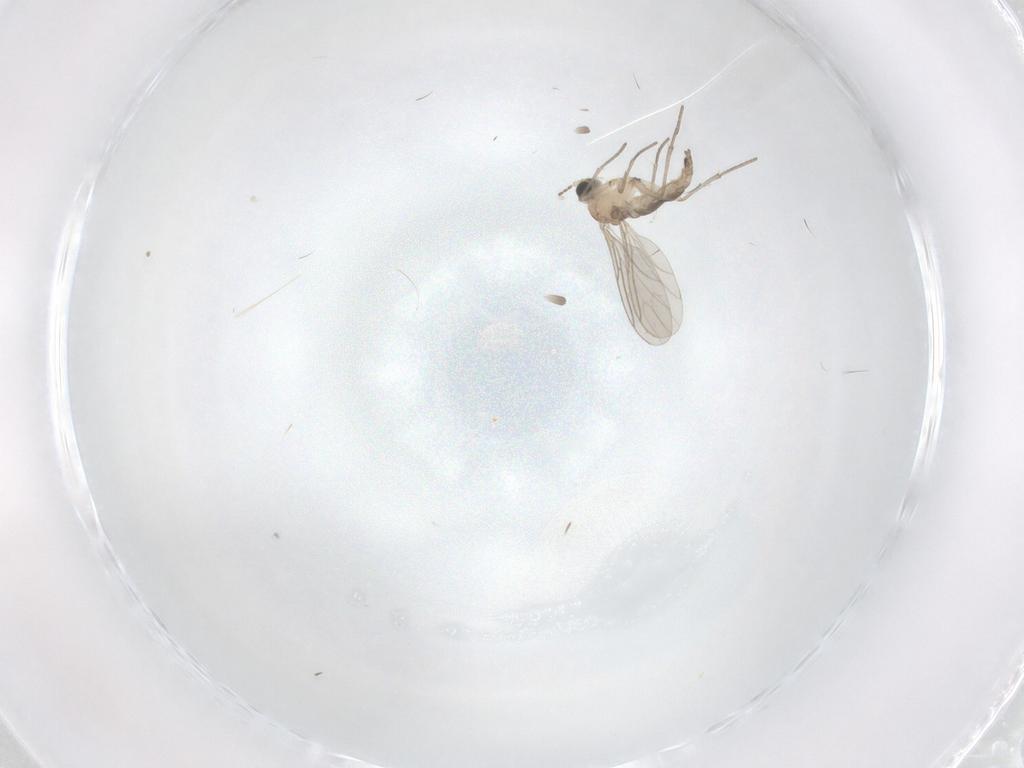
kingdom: Animalia
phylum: Arthropoda
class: Insecta
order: Diptera
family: Sciaridae
